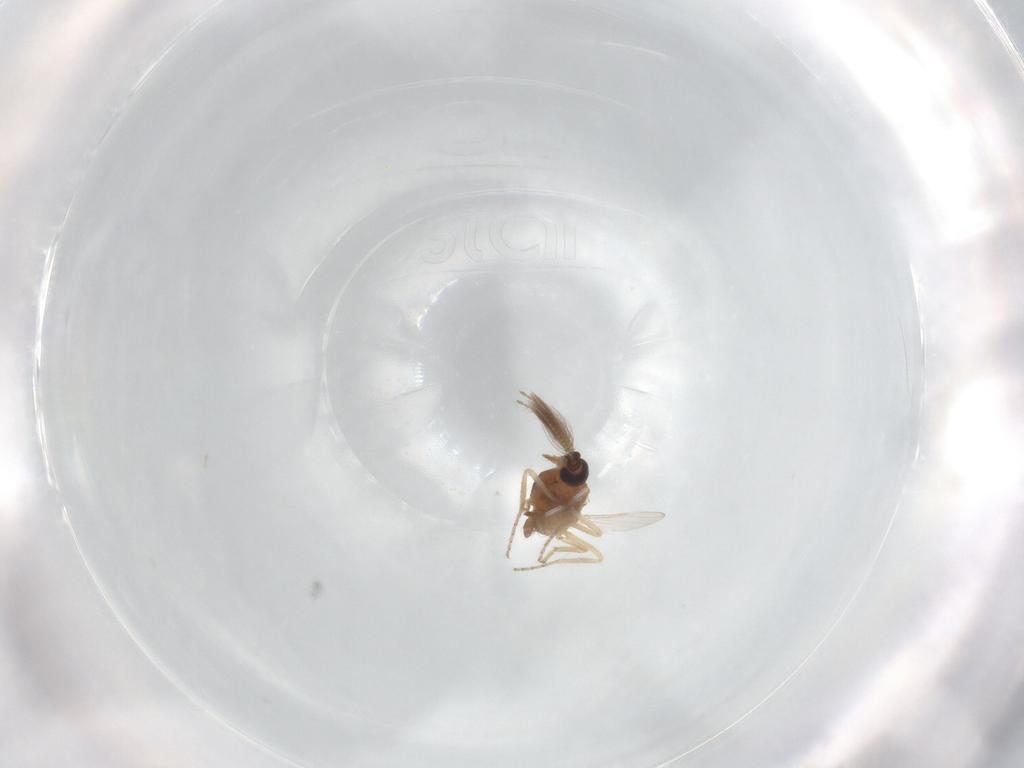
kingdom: Animalia
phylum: Arthropoda
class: Insecta
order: Diptera
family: Ceratopogonidae
